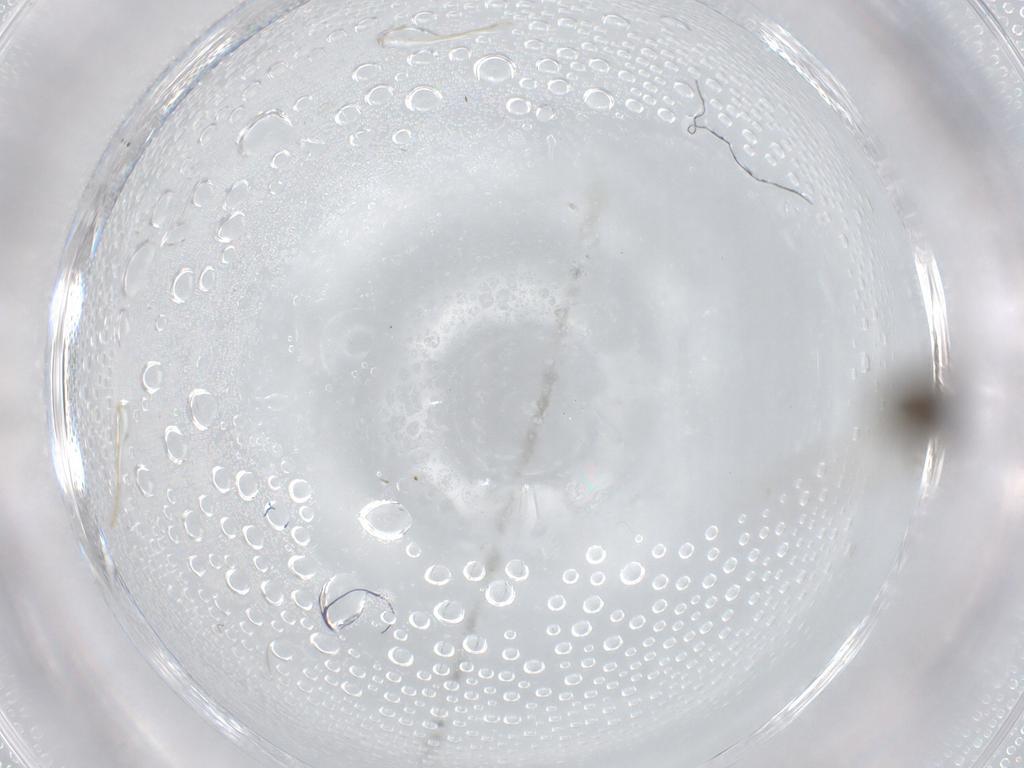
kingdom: Animalia
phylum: Arthropoda
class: Insecta
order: Diptera
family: Chironomidae
